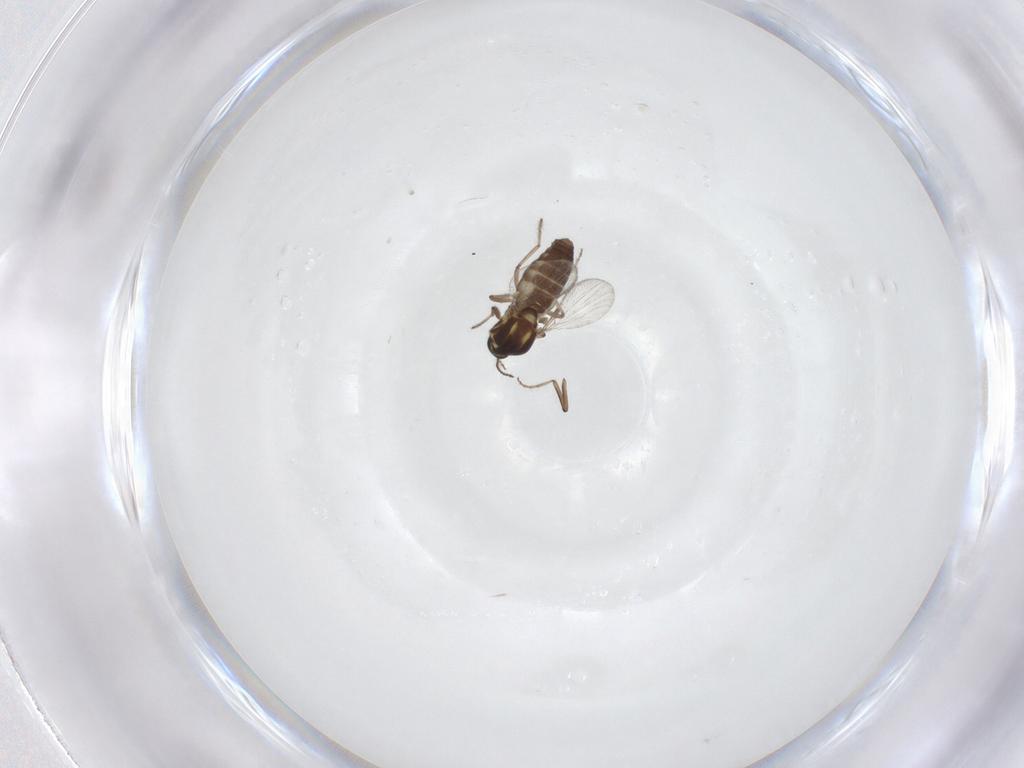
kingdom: Animalia
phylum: Arthropoda
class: Insecta
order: Diptera
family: Ceratopogonidae
